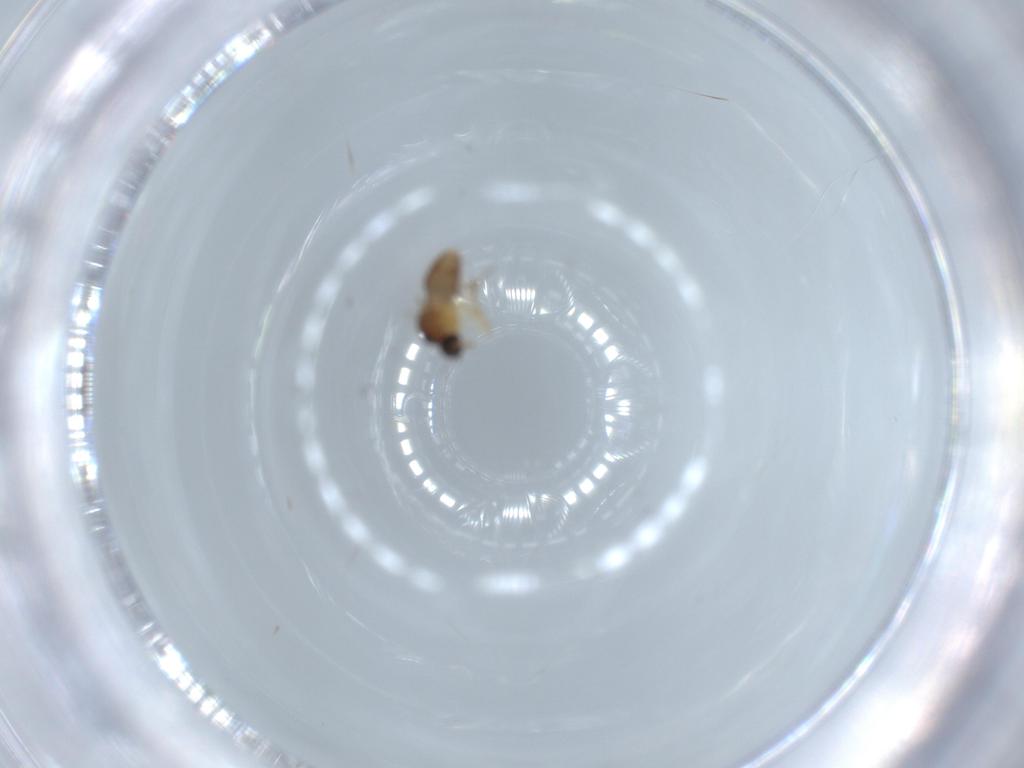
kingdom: Animalia
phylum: Arthropoda
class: Insecta
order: Diptera
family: Ceratopogonidae
